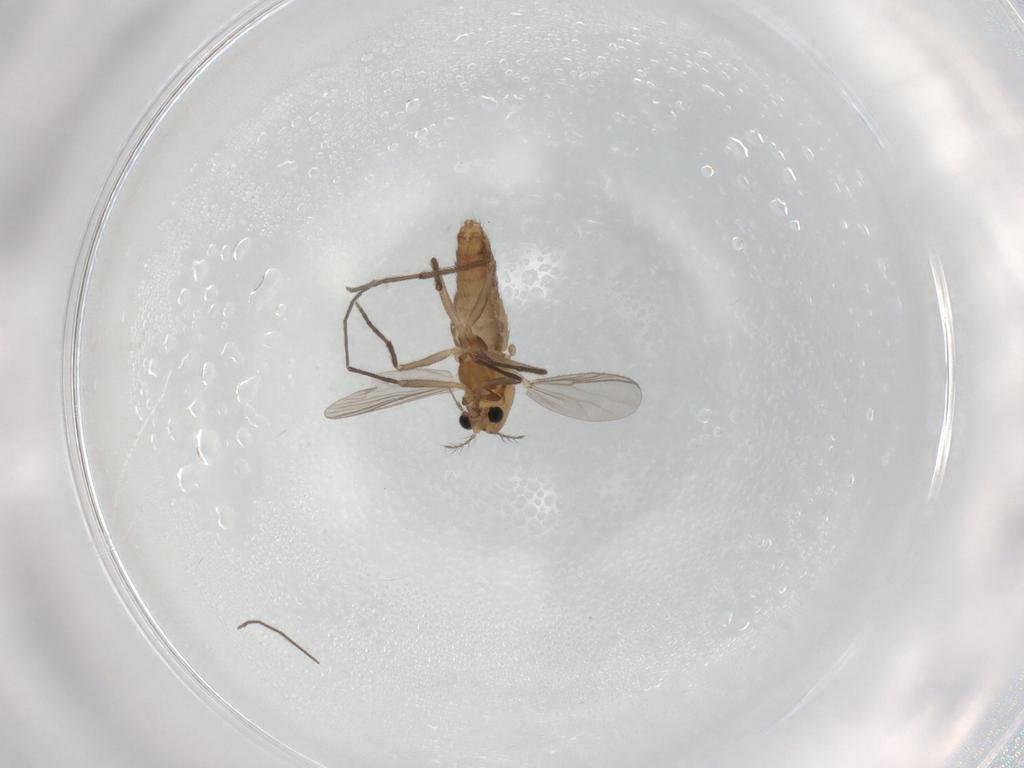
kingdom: Animalia
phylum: Arthropoda
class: Insecta
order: Diptera
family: Chironomidae
